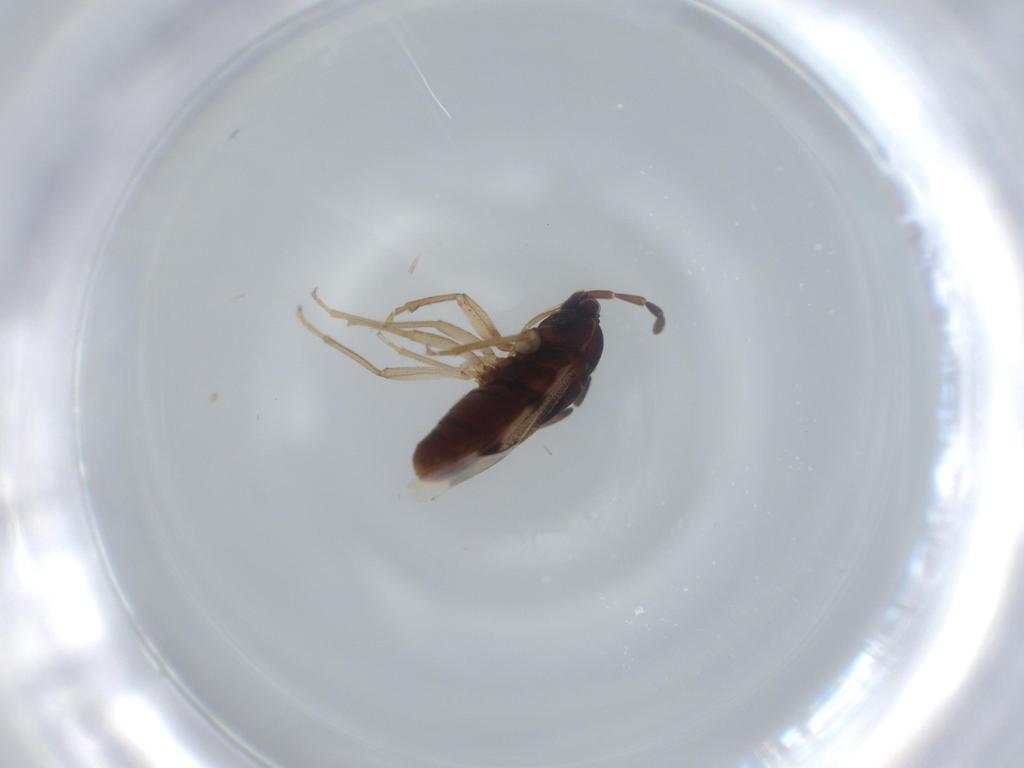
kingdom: Animalia
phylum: Arthropoda
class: Insecta
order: Hemiptera
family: Rhyparochromidae
